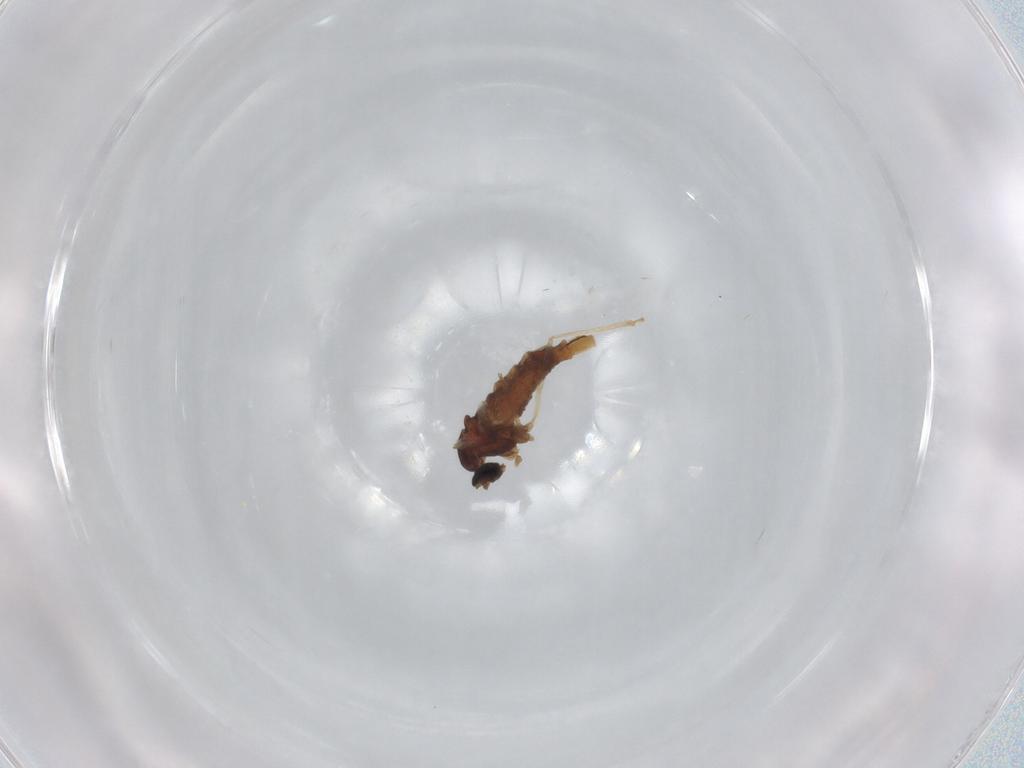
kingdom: Animalia
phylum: Arthropoda
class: Insecta
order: Diptera
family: Cecidomyiidae
